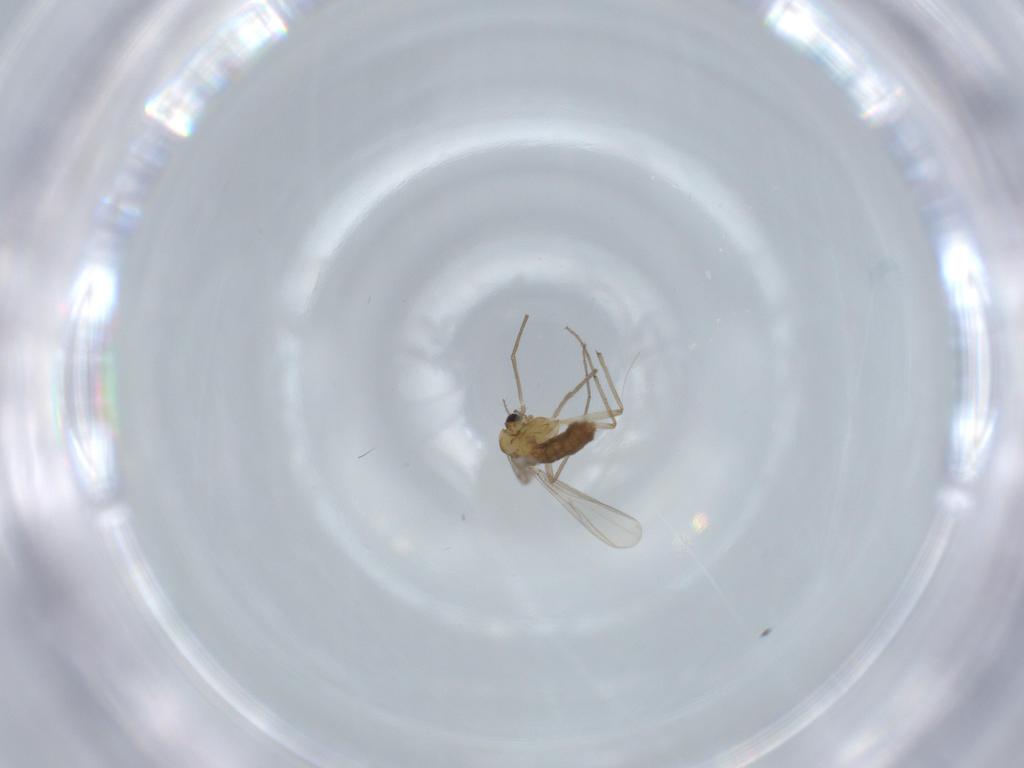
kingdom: Animalia
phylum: Arthropoda
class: Insecta
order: Diptera
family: Chironomidae
